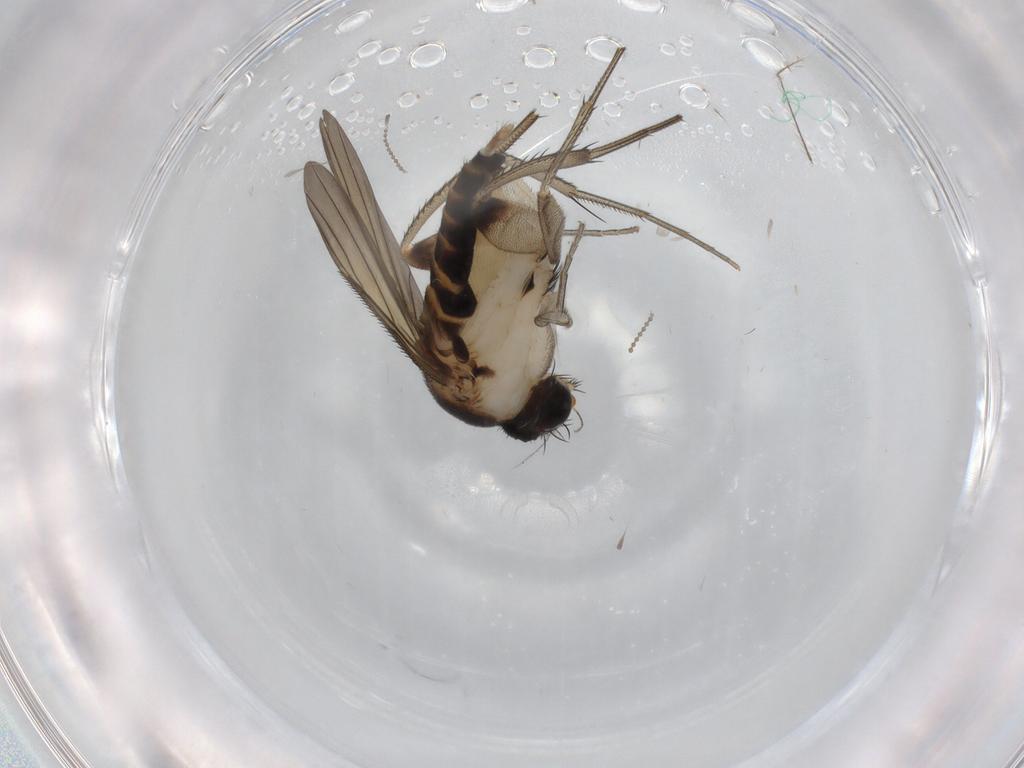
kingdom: Animalia
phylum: Arthropoda
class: Insecta
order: Diptera
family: Phoridae
